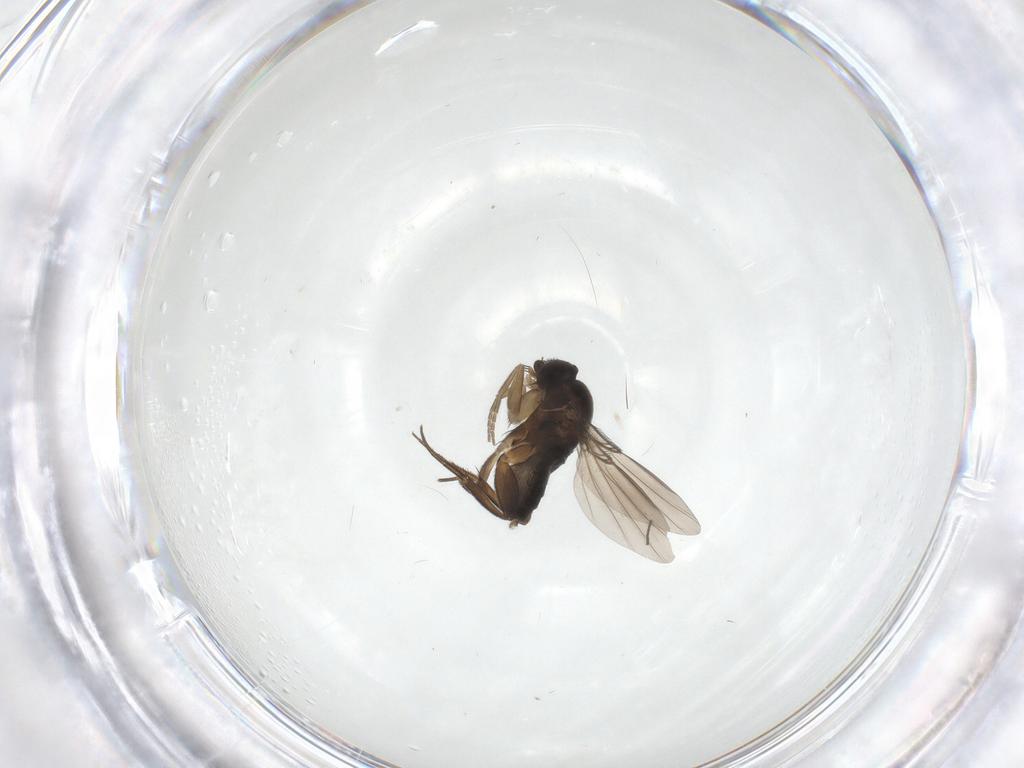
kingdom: Animalia
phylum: Arthropoda
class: Insecta
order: Diptera
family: Phoridae
